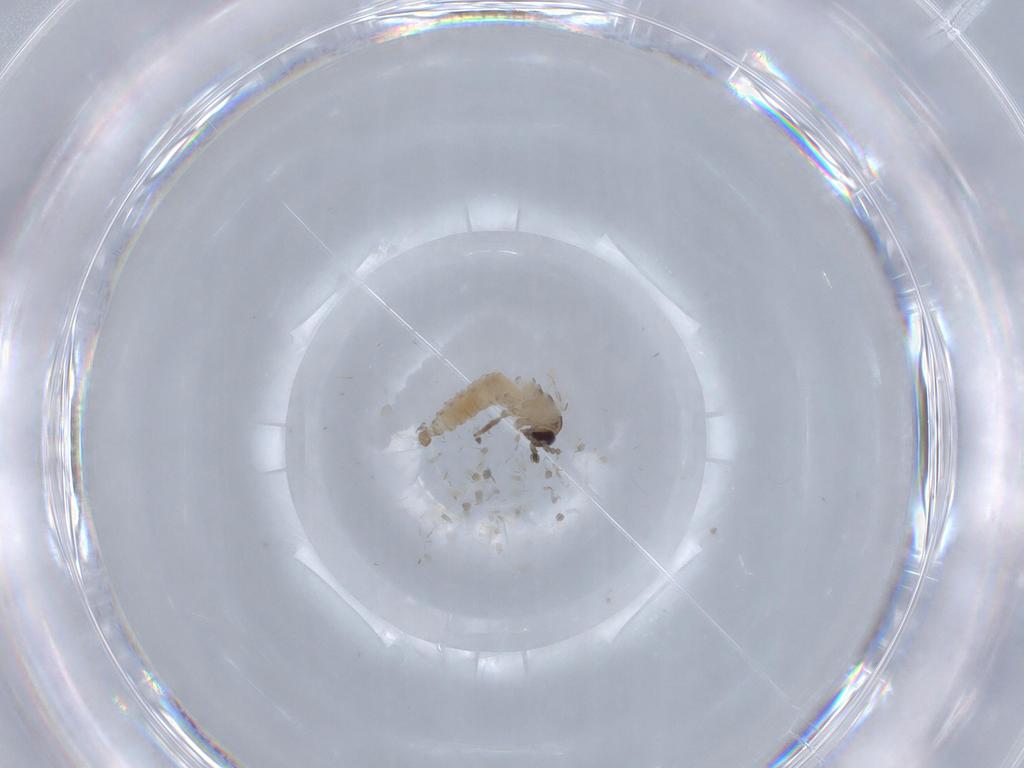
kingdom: Animalia
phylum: Arthropoda
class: Insecta
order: Diptera
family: Psychodidae
